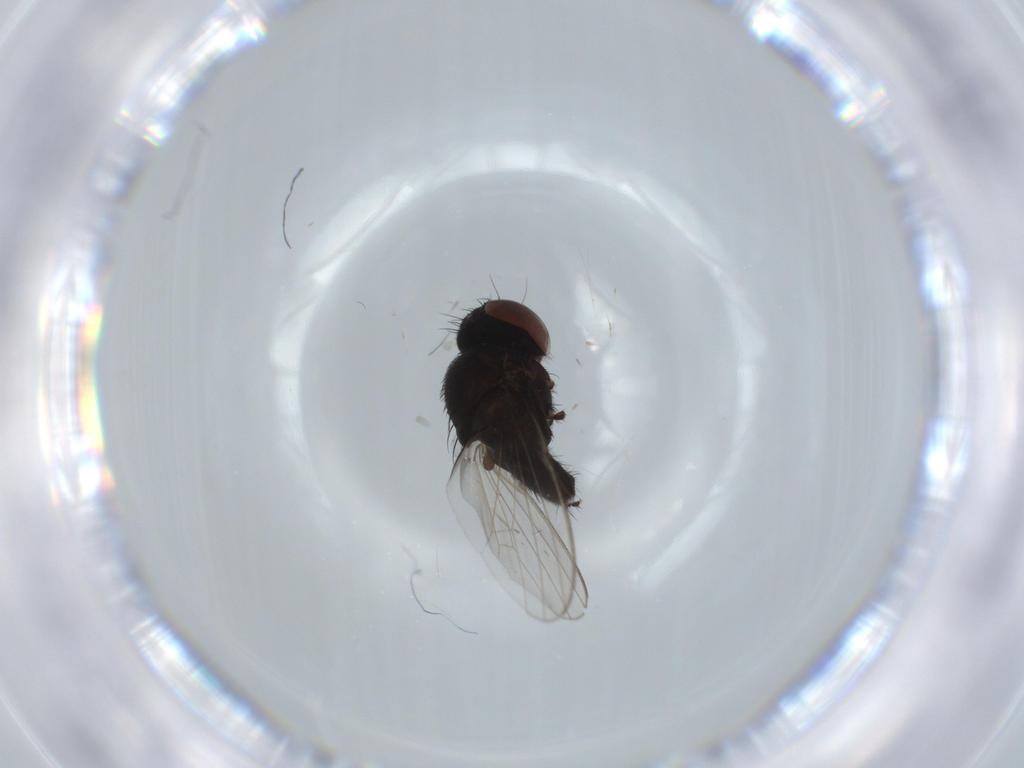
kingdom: Animalia
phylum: Arthropoda
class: Insecta
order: Diptera
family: Milichiidae
